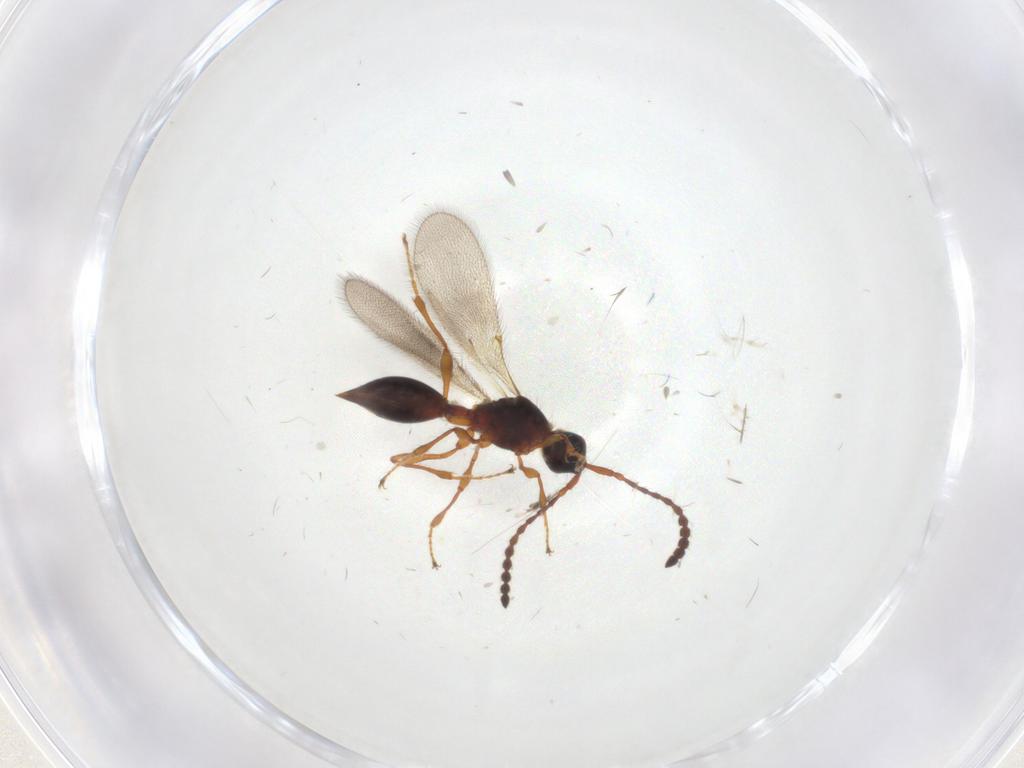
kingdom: Animalia
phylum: Arthropoda
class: Insecta
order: Hymenoptera
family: Diapriidae
